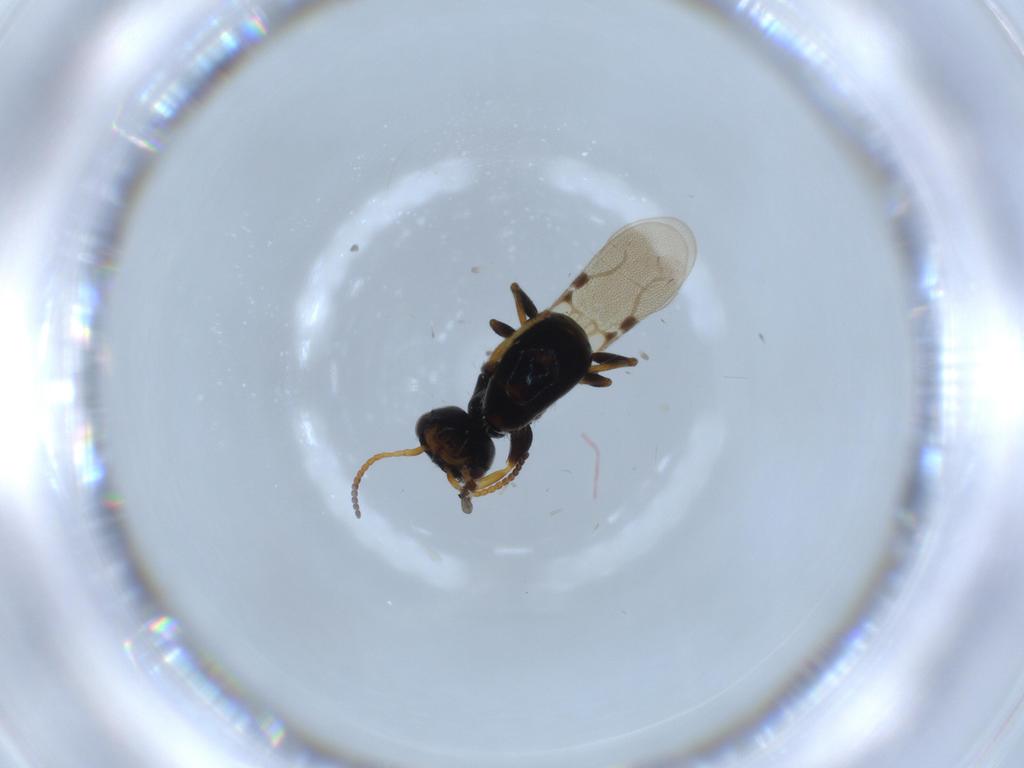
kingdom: Animalia
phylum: Arthropoda
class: Insecta
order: Hymenoptera
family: Bethylidae
